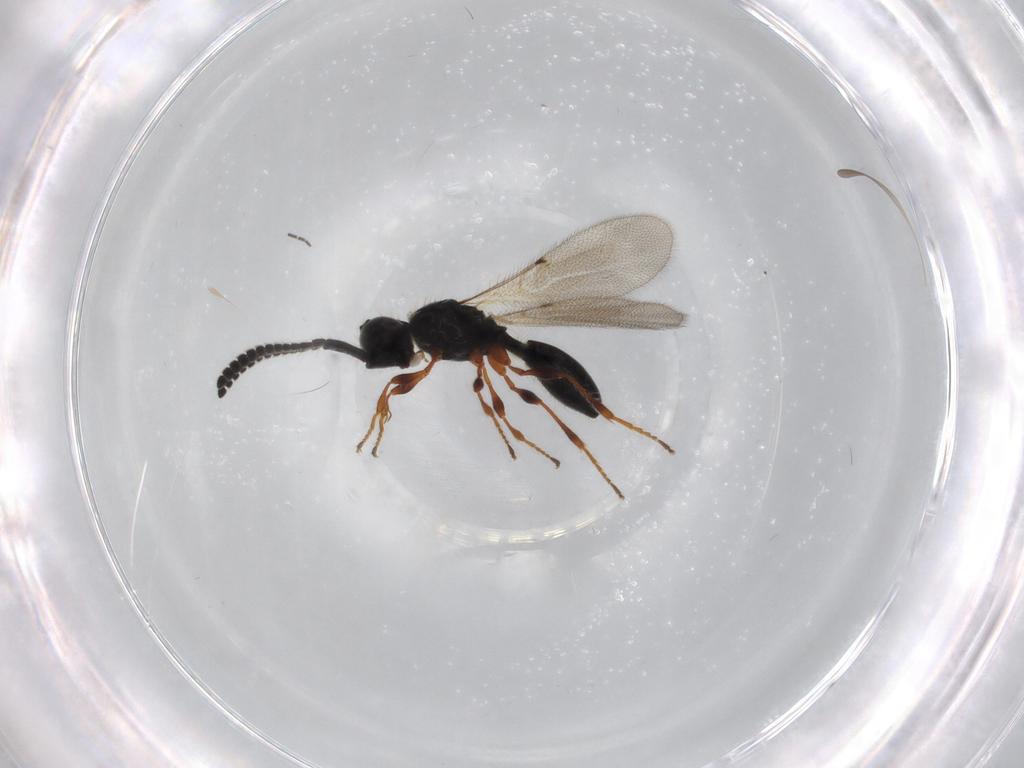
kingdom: Animalia
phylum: Arthropoda
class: Insecta
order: Hymenoptera
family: Diapriidae
